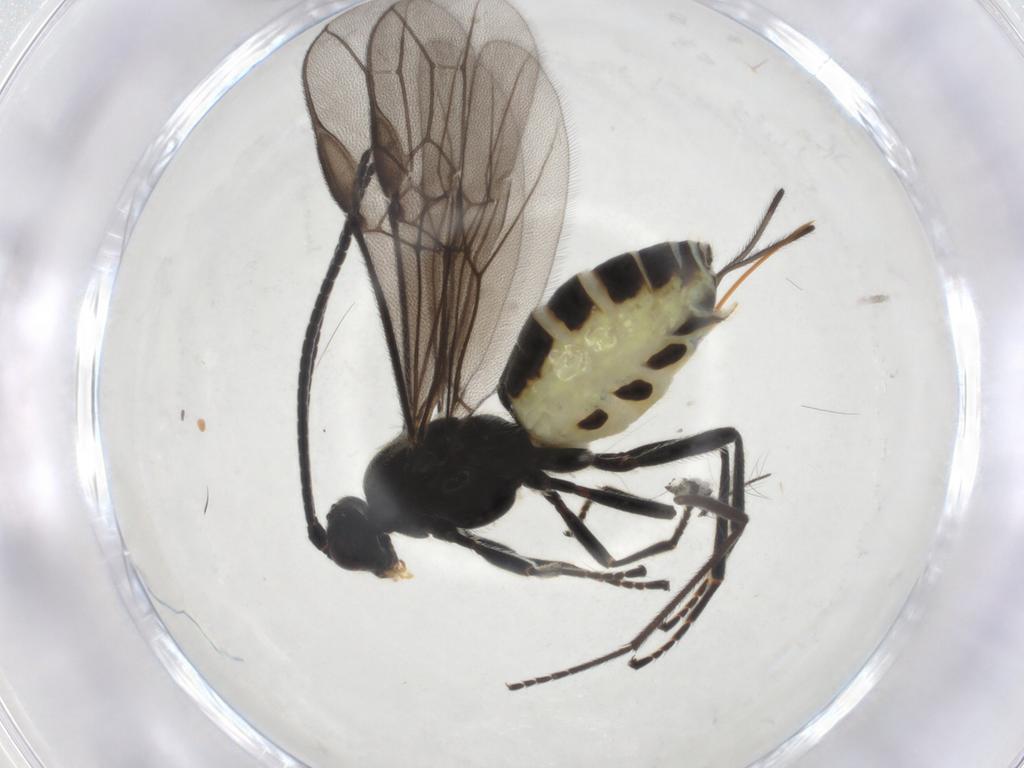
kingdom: Animalia
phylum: Arthropoda
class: Insecta
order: Hymenoptera
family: Braconidae
